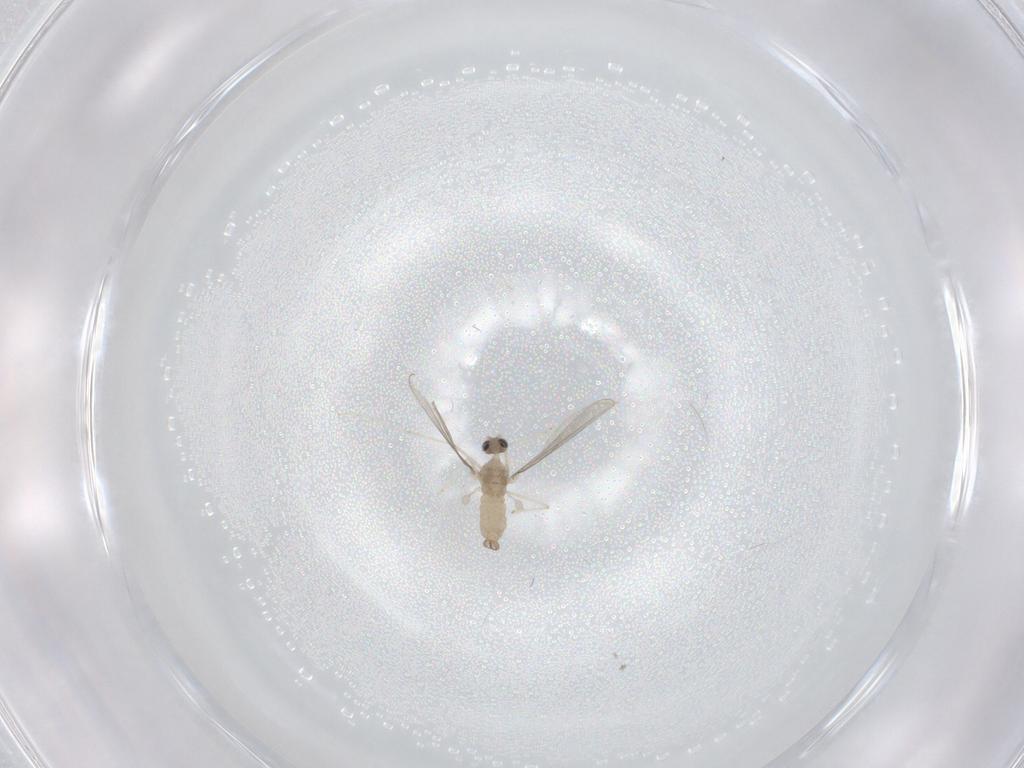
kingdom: Animalia
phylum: Arthropoda
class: Insecta
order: Diptera
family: Cecidomyiidae
